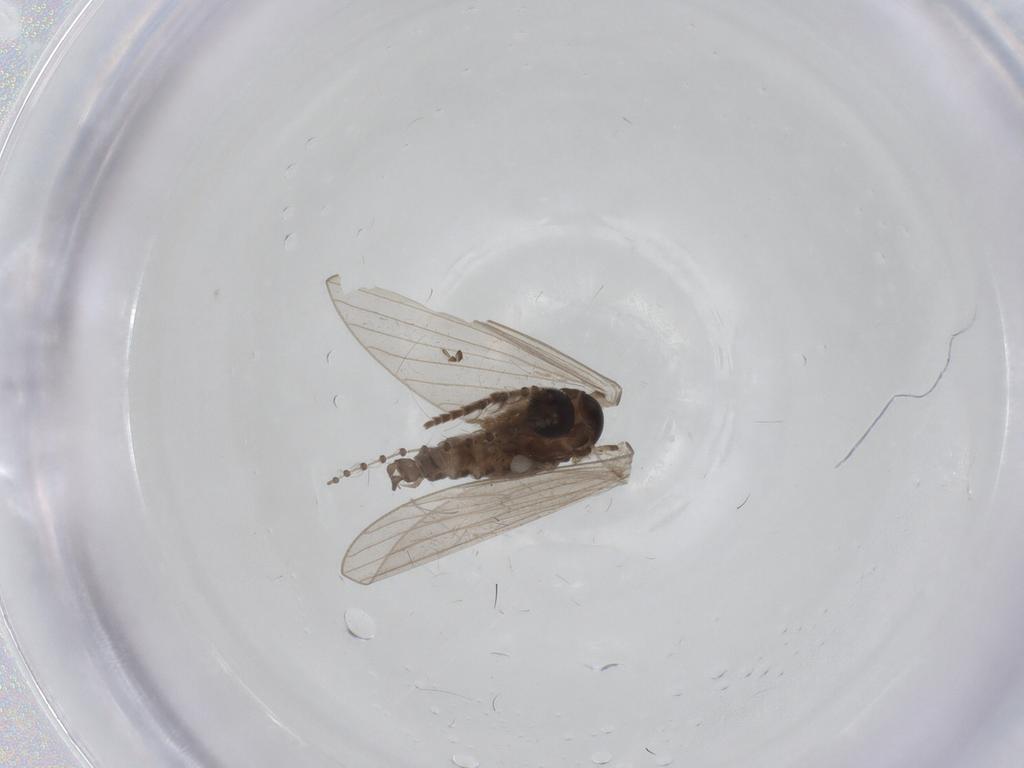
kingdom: Animalia
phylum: Arthropoda
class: Insecta
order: Diptera
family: Psychodidae
